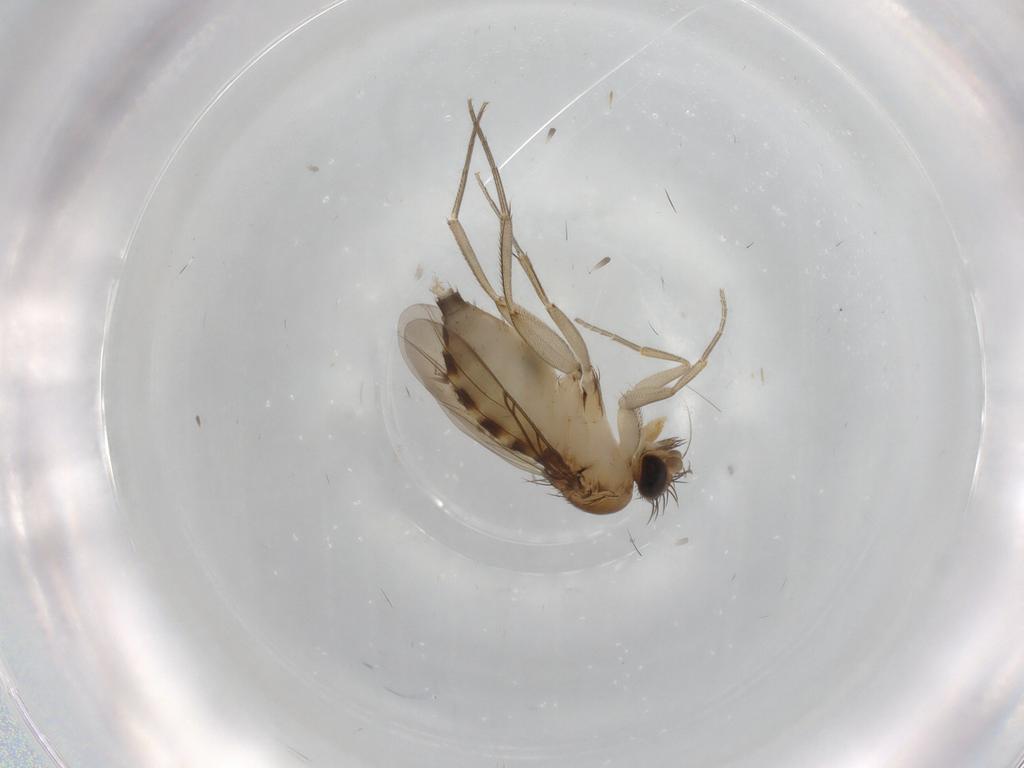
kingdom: Animalia
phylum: Arthropoda
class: Insecta
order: Diptera
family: Phoridae
